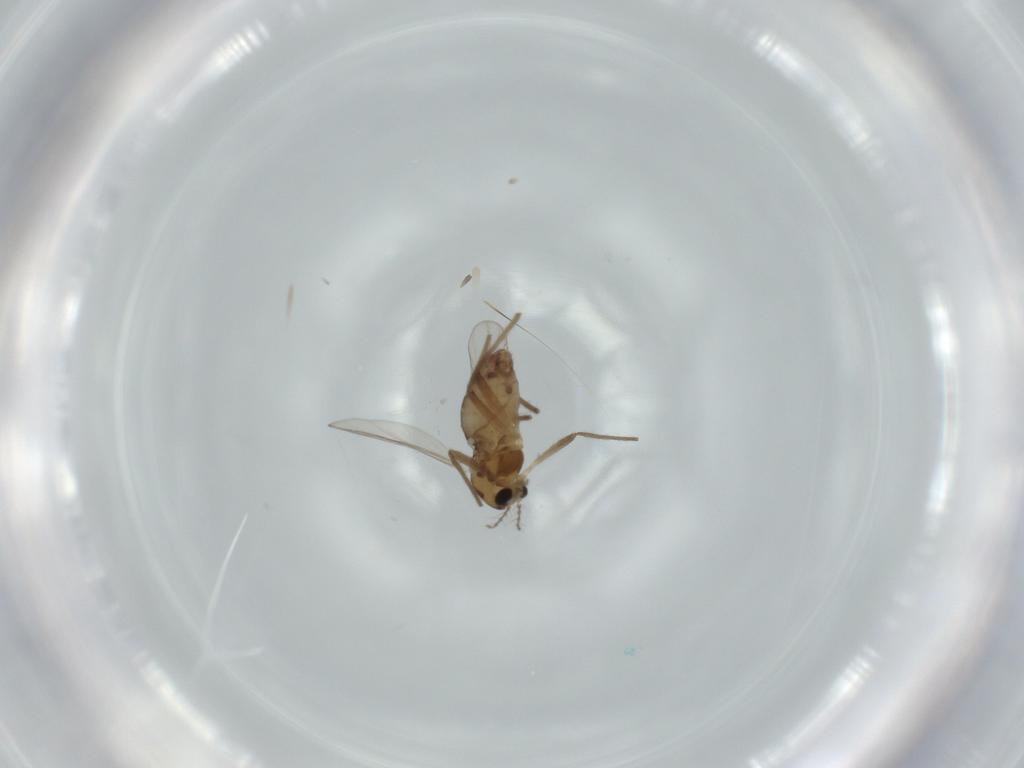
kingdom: Animalia
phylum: Arthropoda
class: Insecta
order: Diptera
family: Chironomidae
